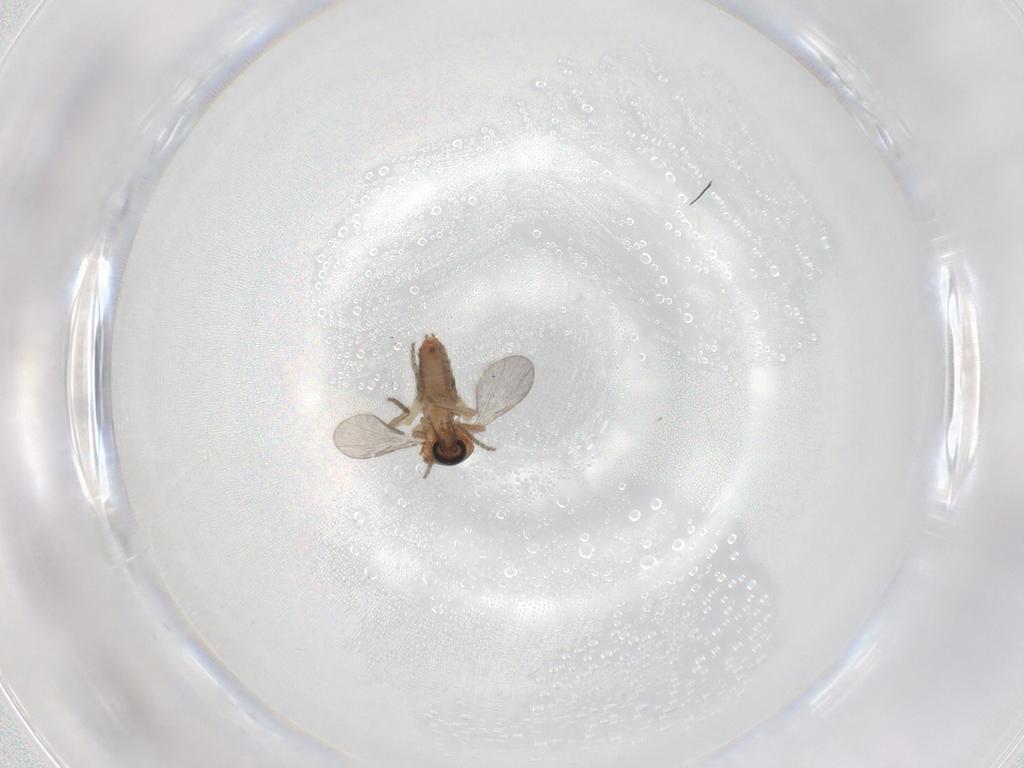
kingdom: Animalia
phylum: Arthropoda
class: Insecta
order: Diptera
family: Ceratopogonidae
